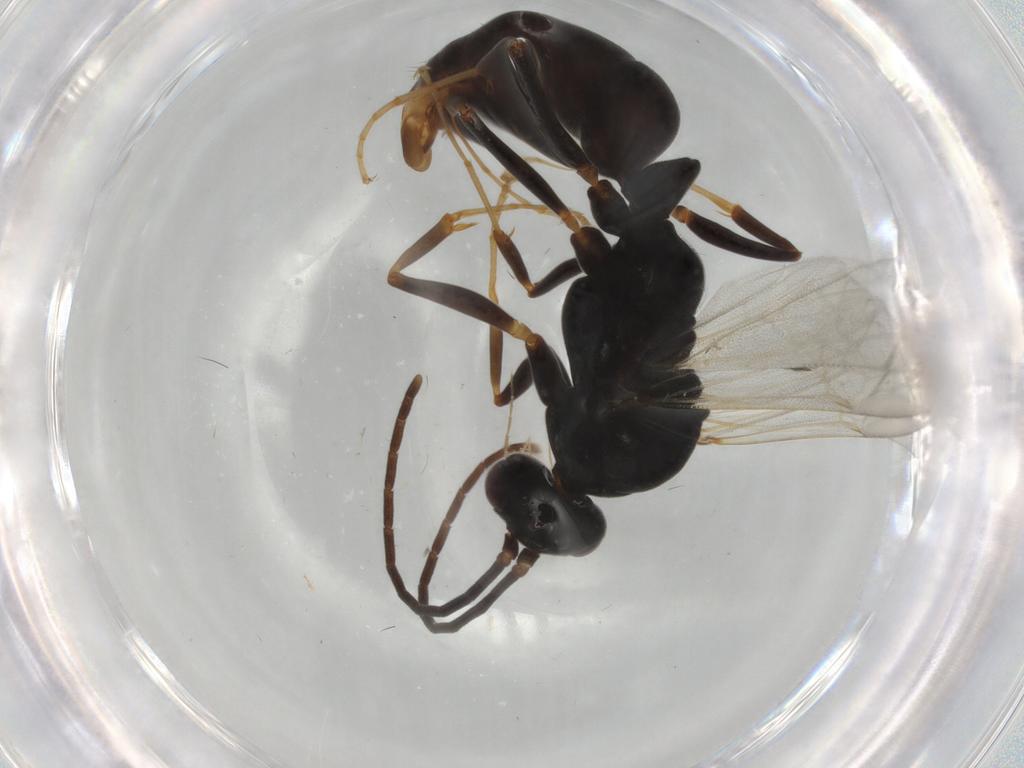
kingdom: Animalia
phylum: Arthropoda
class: Insecta
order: Hymenoptera
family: Formicidae
